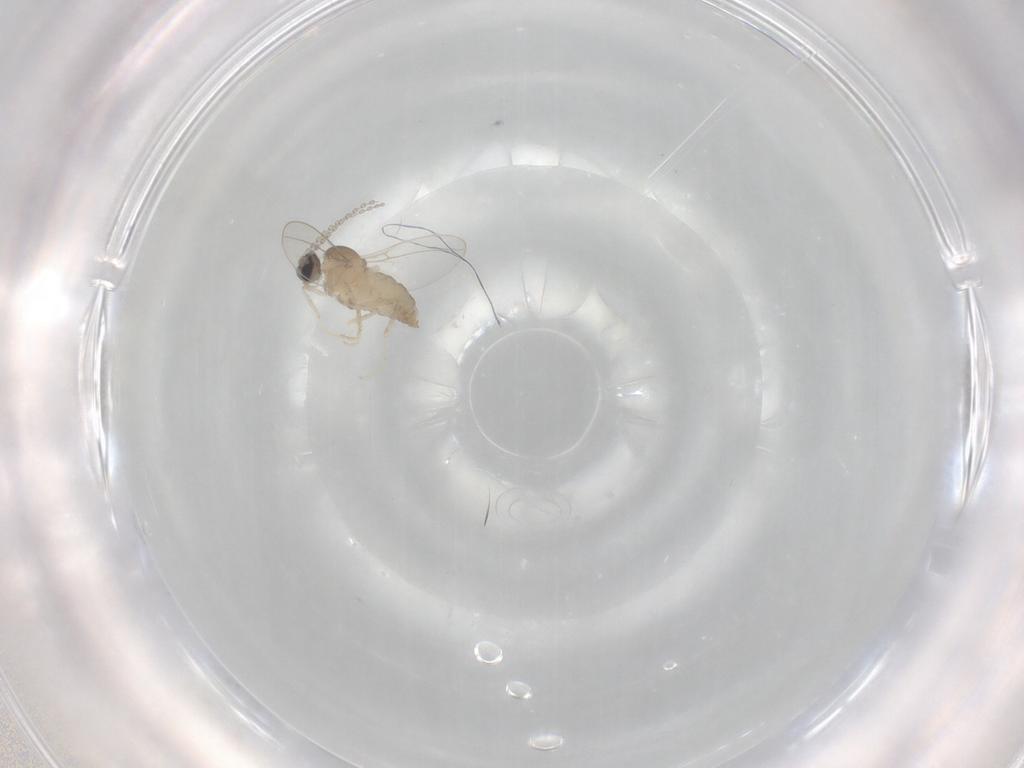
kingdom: Animalia
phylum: Arthropoda
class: Insecta
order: Diptera
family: Cecidomyiidae
